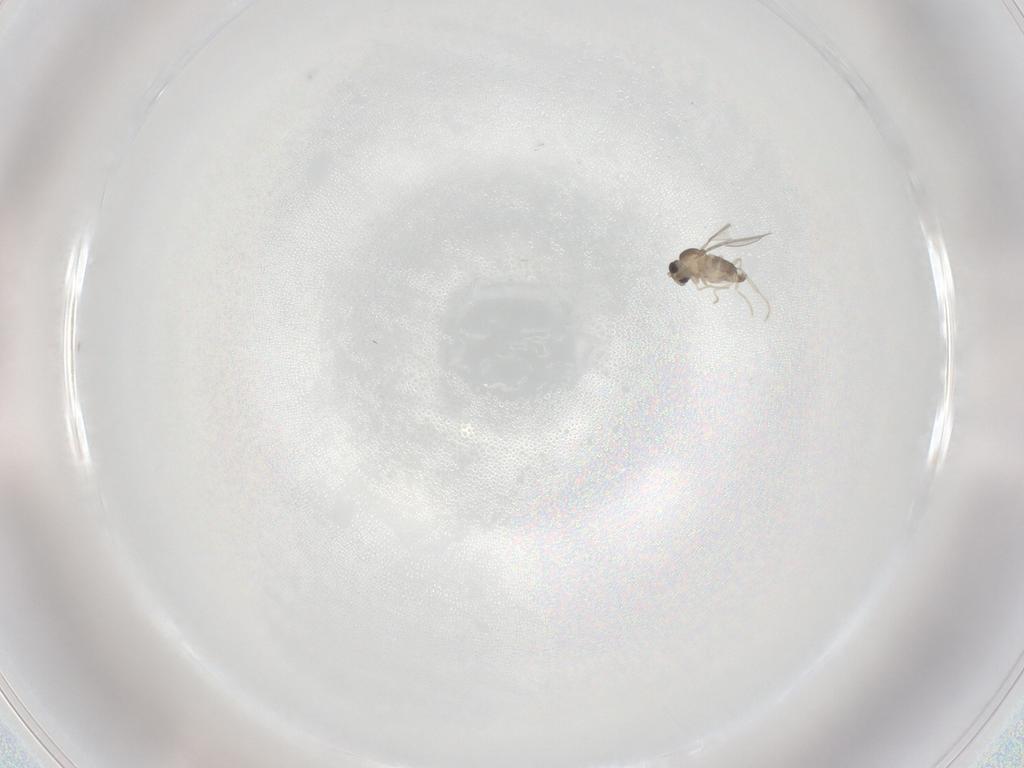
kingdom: Animalia
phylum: Arthropoda
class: Insecta
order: Diptera
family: Cecidomyiidae
